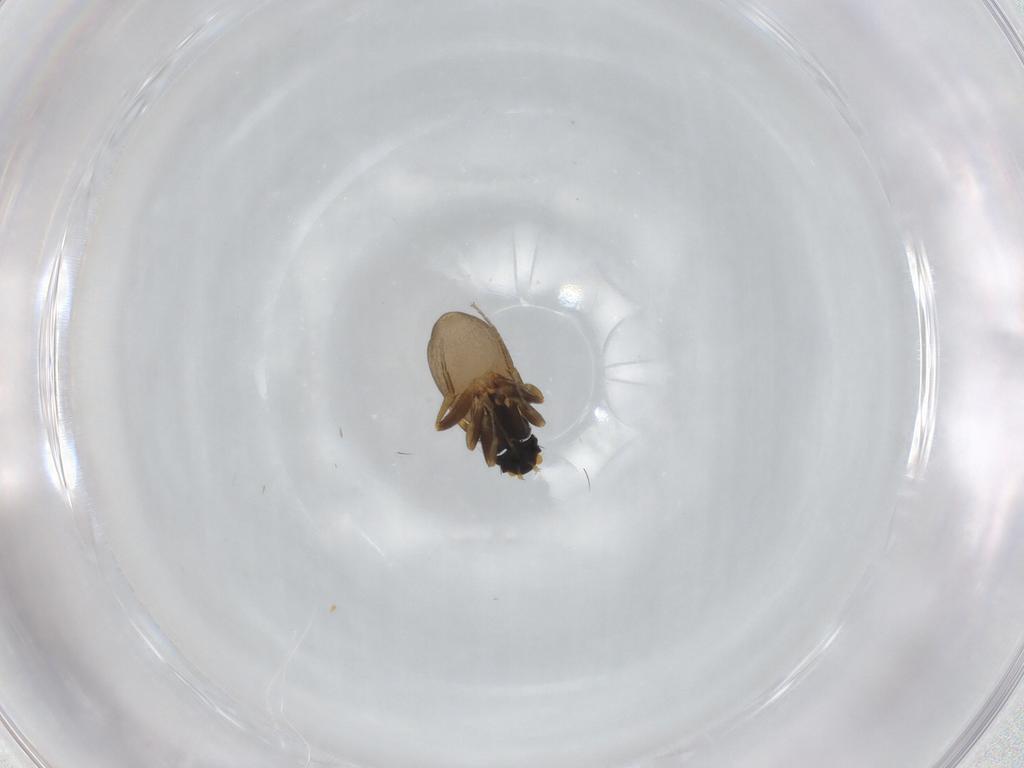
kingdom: Animalia
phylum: Arthropoda
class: Insecta
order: Diptera
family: Phoridae
